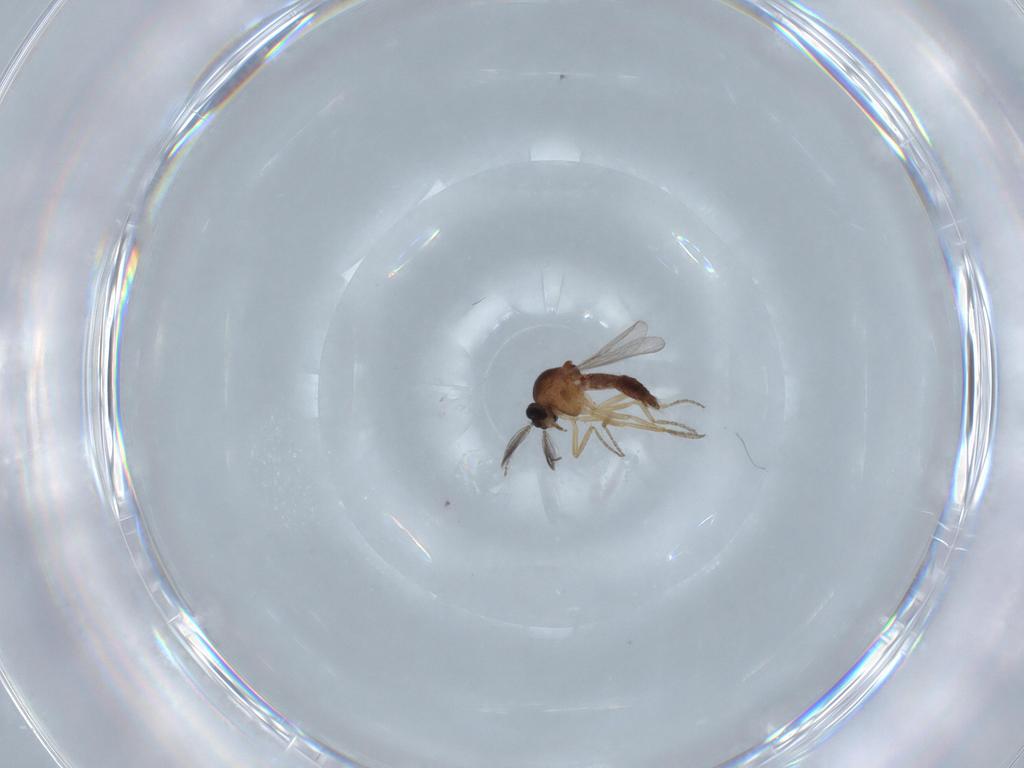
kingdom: Animalia
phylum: Arthropoda
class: Insecta
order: Diptera
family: Ceratopogonidae
